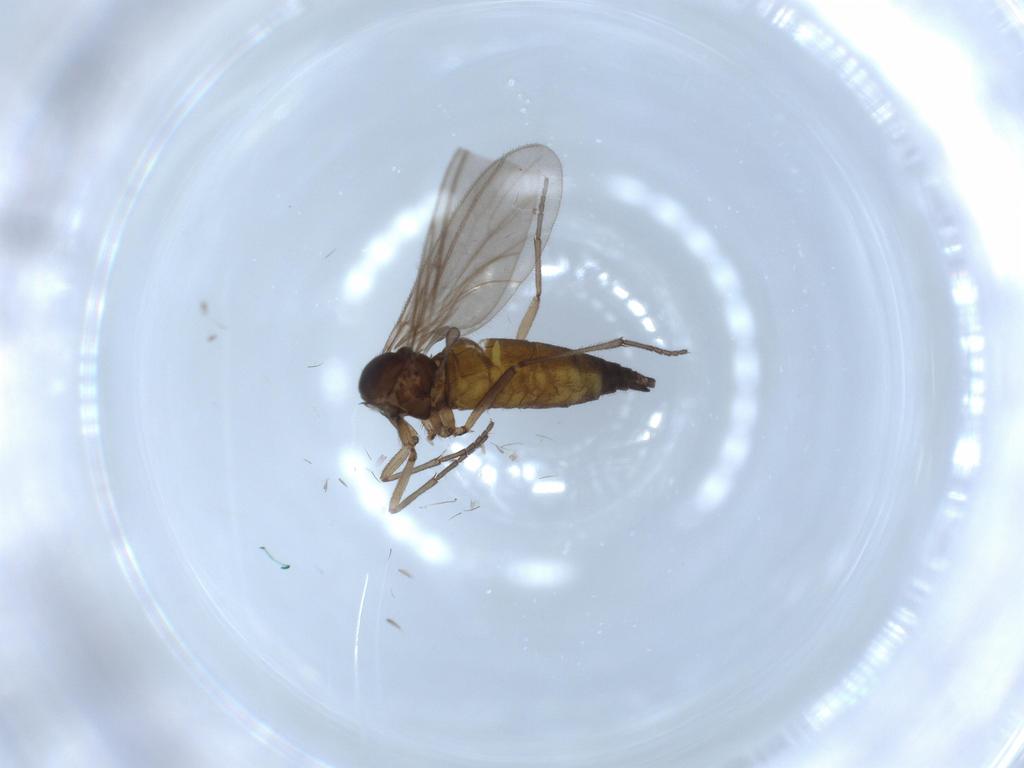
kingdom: Animalia
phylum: Arthropoda
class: Insecta
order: Diptera
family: Sciaridae
